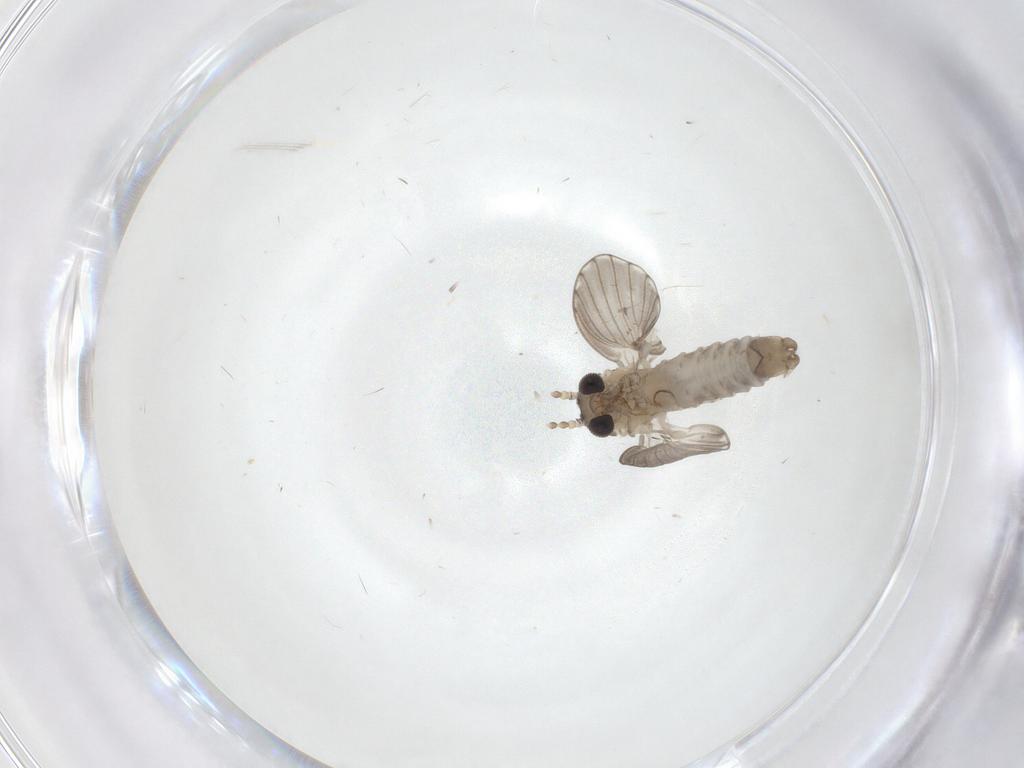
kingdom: Animalia
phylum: Arthropoda
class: Insecta
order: Diptera
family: Psychodidae
